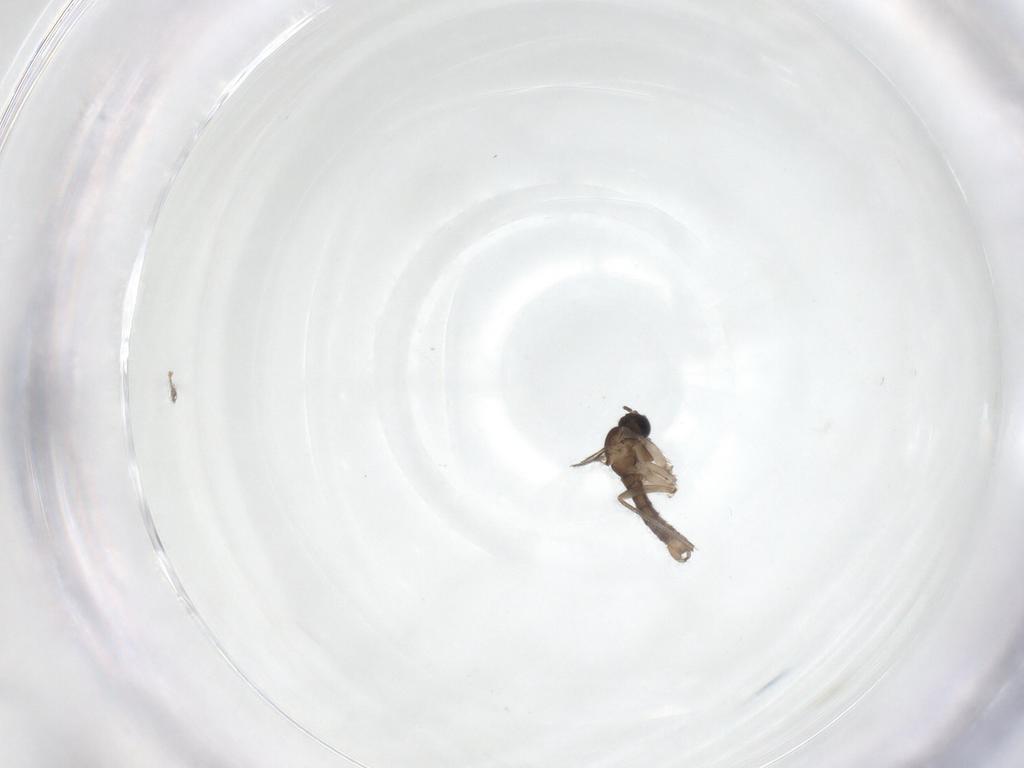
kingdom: Animalia
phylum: Arthropoda
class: Insecta
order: Diptera
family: Sciaridae
